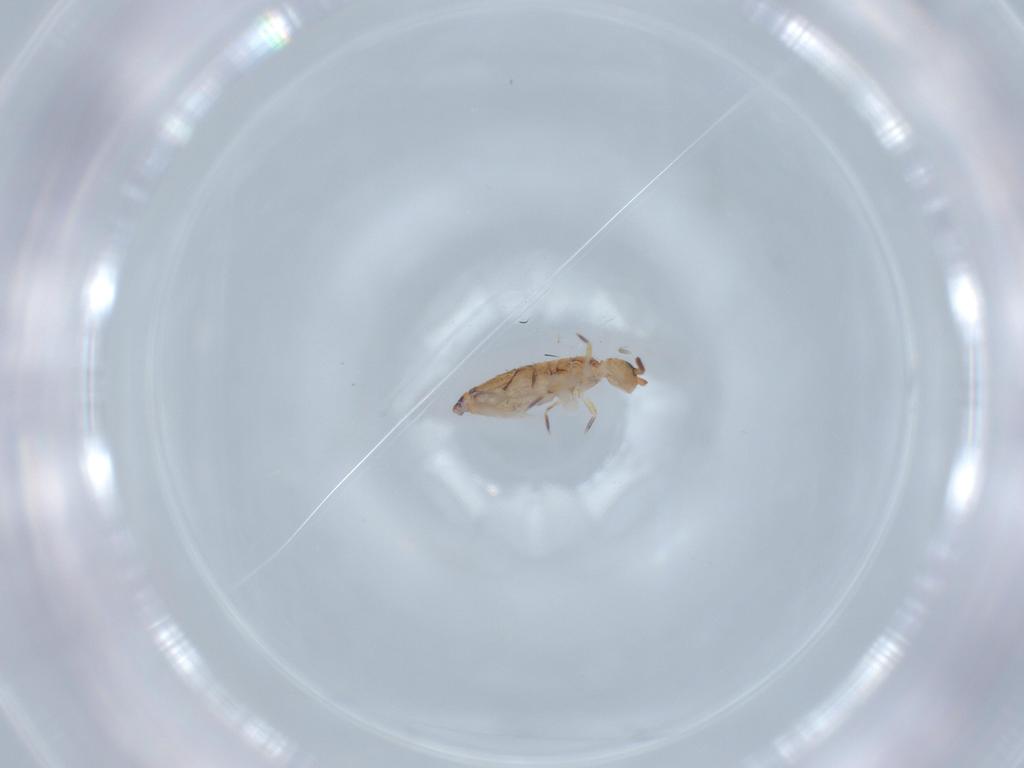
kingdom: Animalia
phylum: Arthropoda
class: Collembola
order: Entomobryomorpha
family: Entomobryidae
